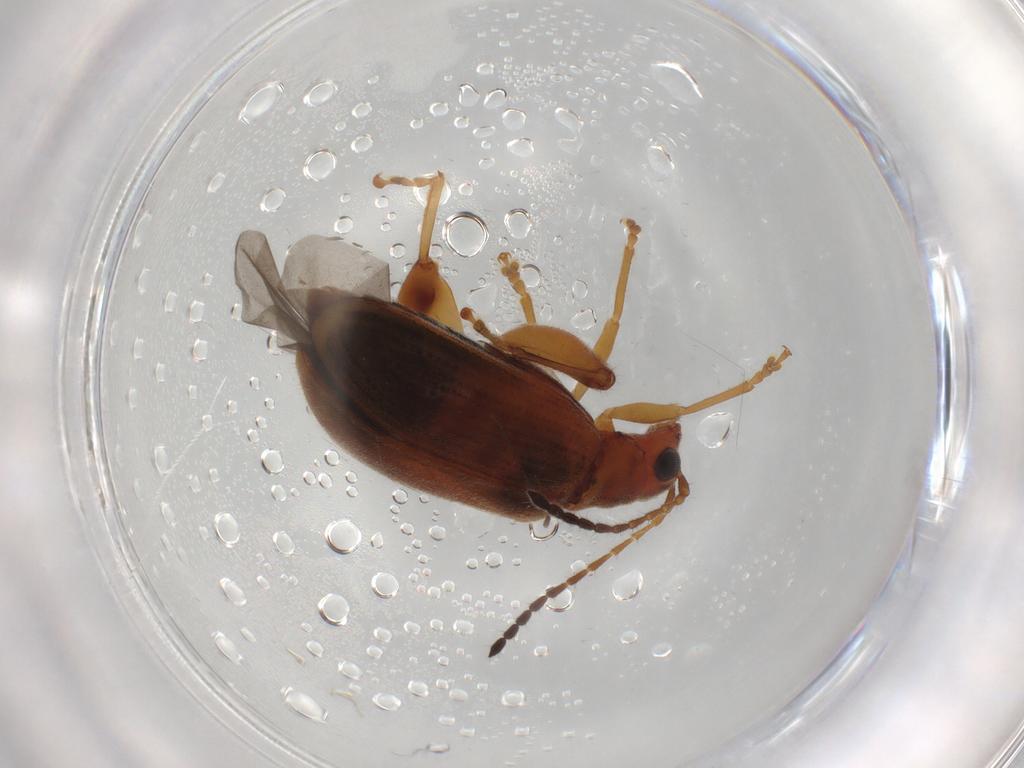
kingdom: Animalia
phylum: Arthropoda
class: Insecta
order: Coleoptera
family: Chrysomelidae
